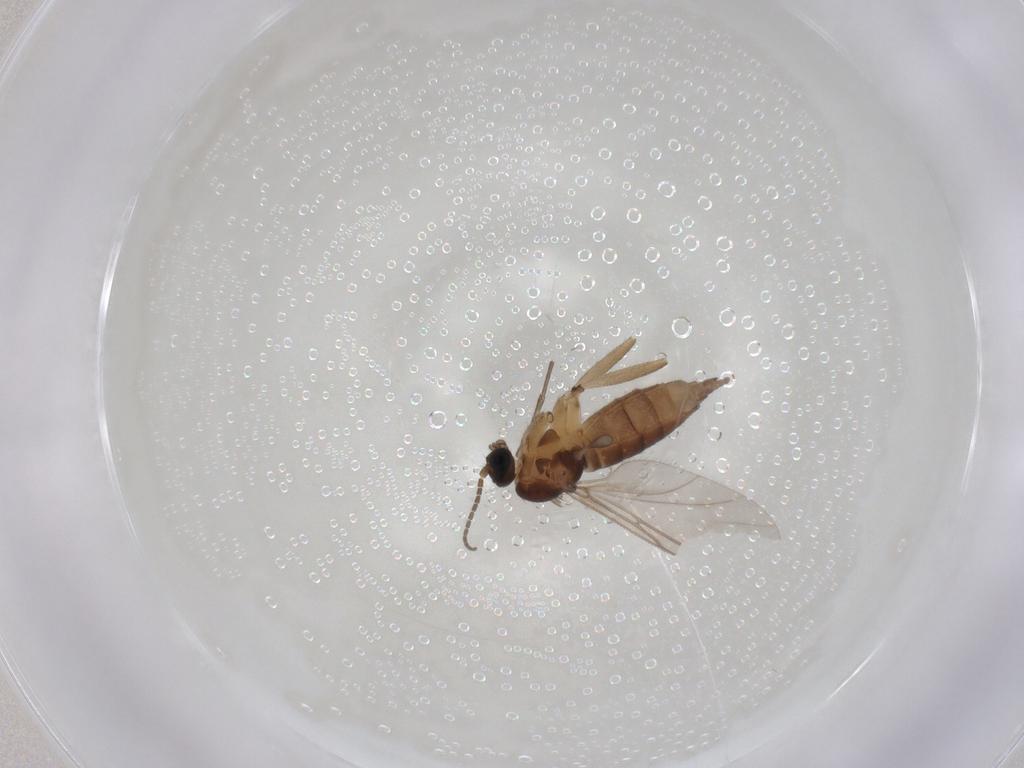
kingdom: Animalia
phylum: Arthropoda
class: Insecta
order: Diptera
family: Sciaridae
